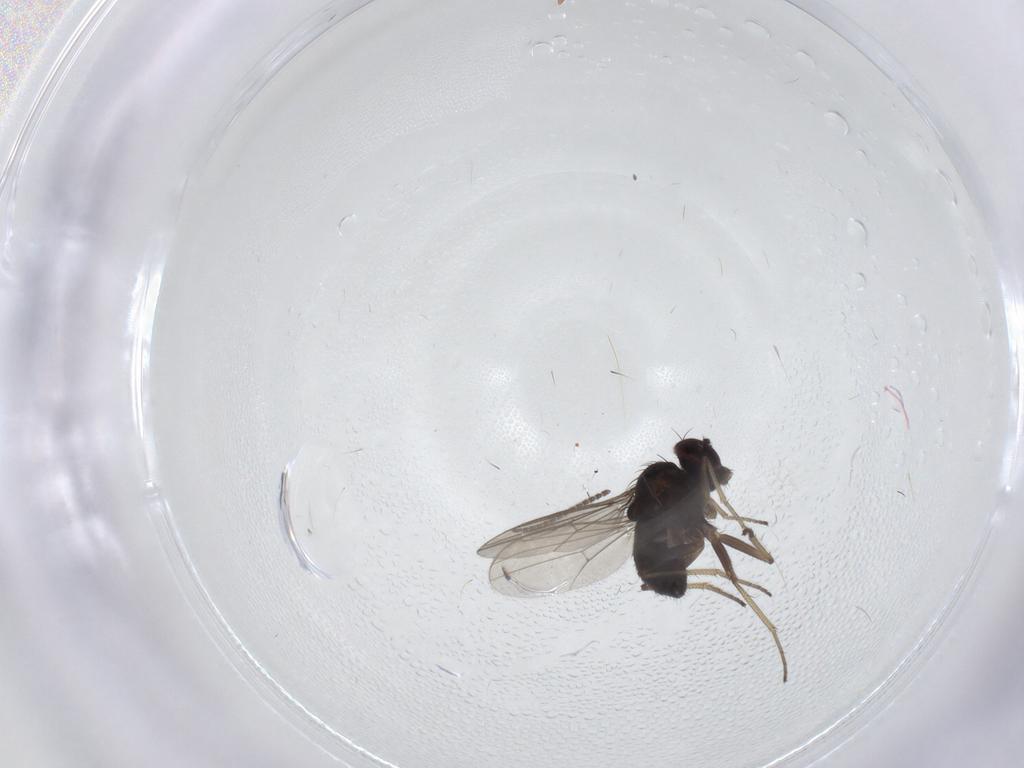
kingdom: Animalia
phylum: Arthropoda
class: Insecta
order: Diptera
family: Dolichopodidae
